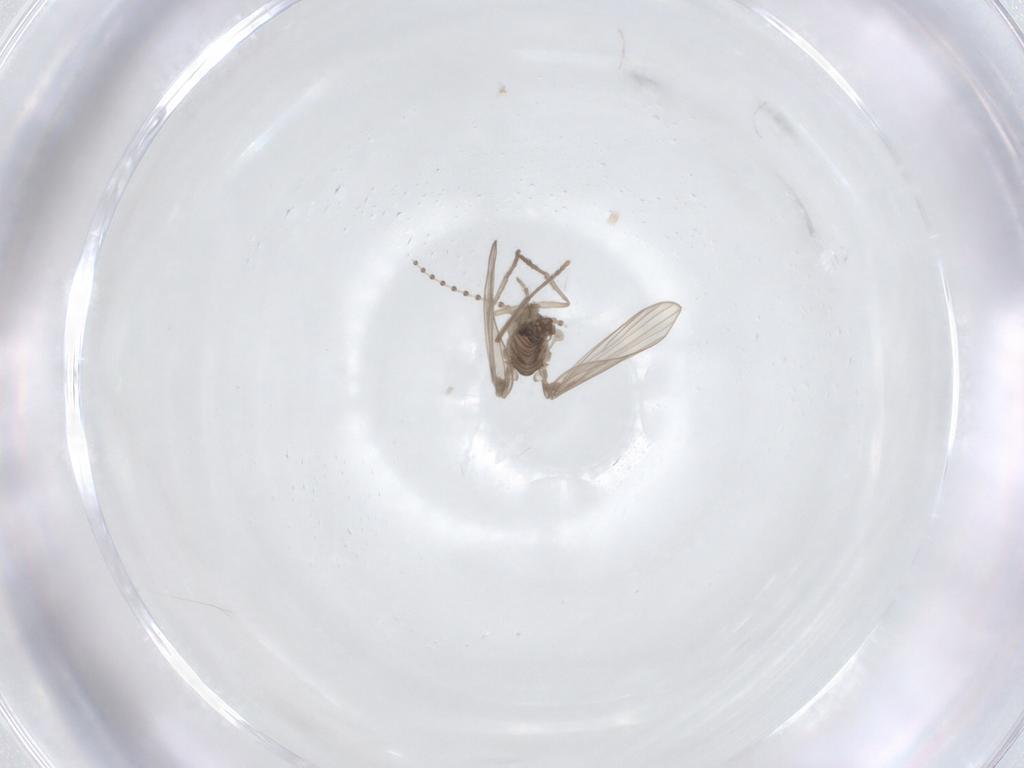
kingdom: Animalia
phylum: Arthropoda
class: Insecta
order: Diptera
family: Psychodidae
